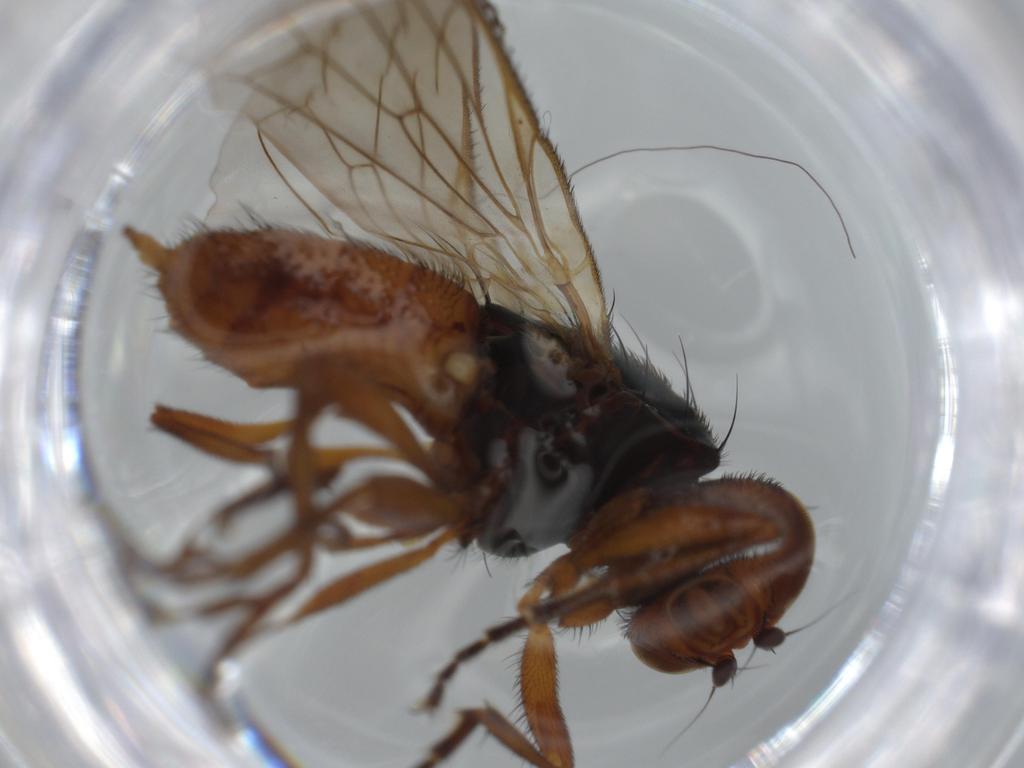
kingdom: Animalia
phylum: Arthropoda
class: Insecta
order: Diptera
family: Heleomyzidae
